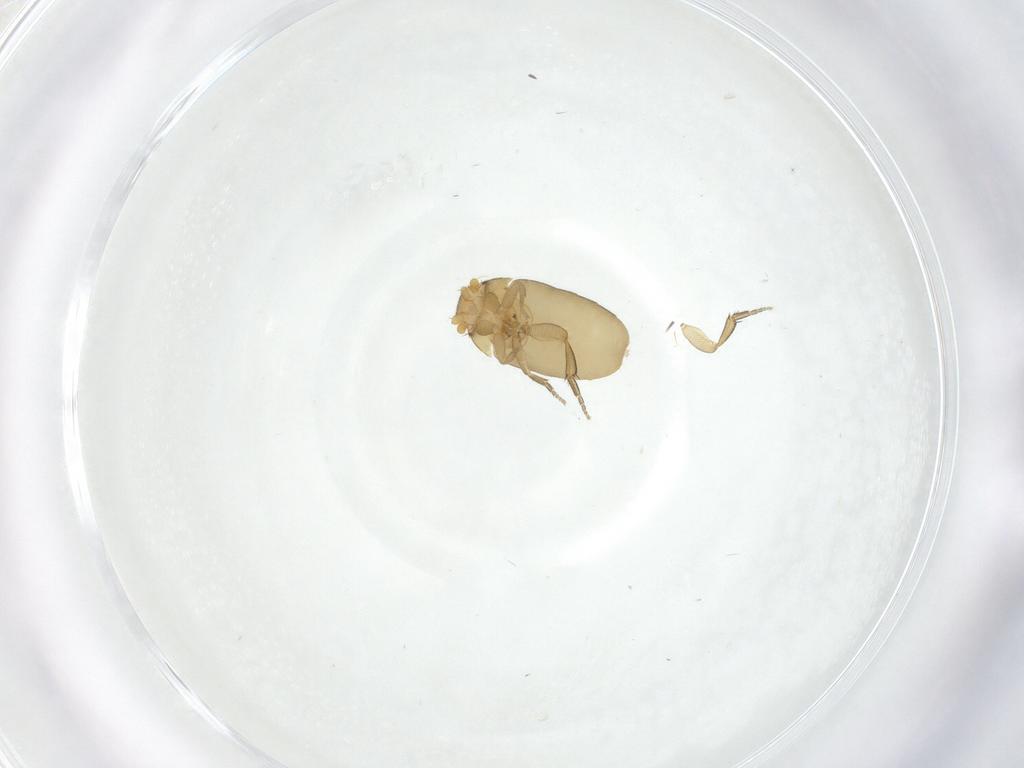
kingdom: Animalia
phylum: Arthropoda
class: Insecta
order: Diptera
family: Phoridae
